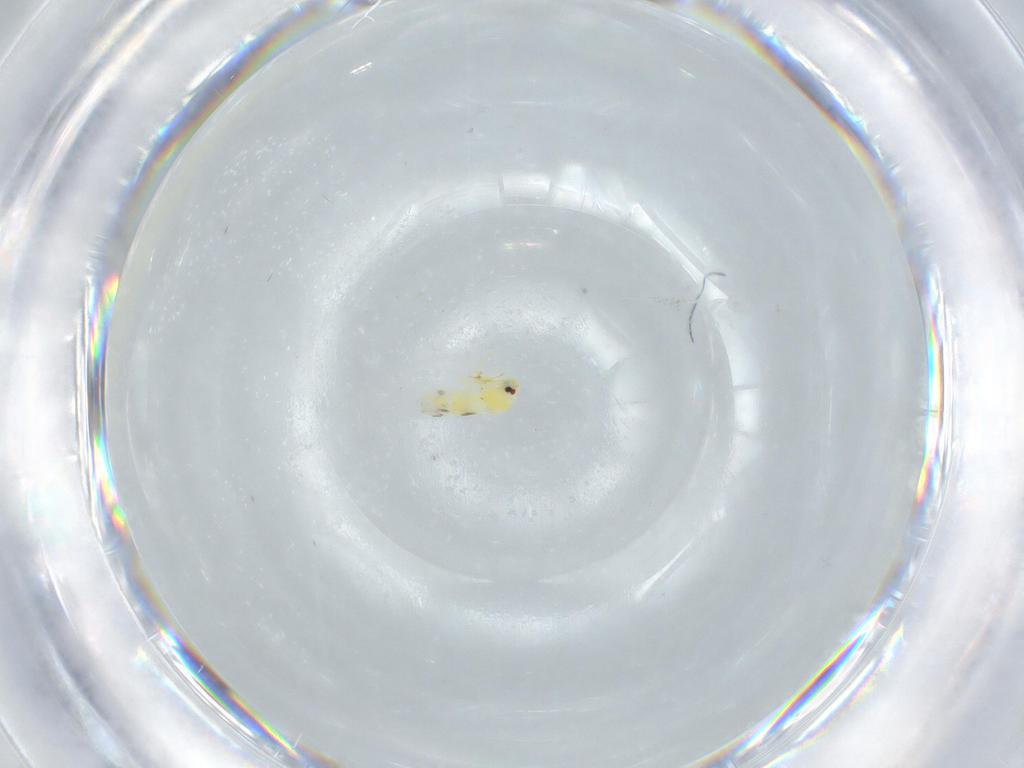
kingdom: Animalia
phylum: Arthropoda
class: Insecta
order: Hemiptera
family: Aleyrodidae
